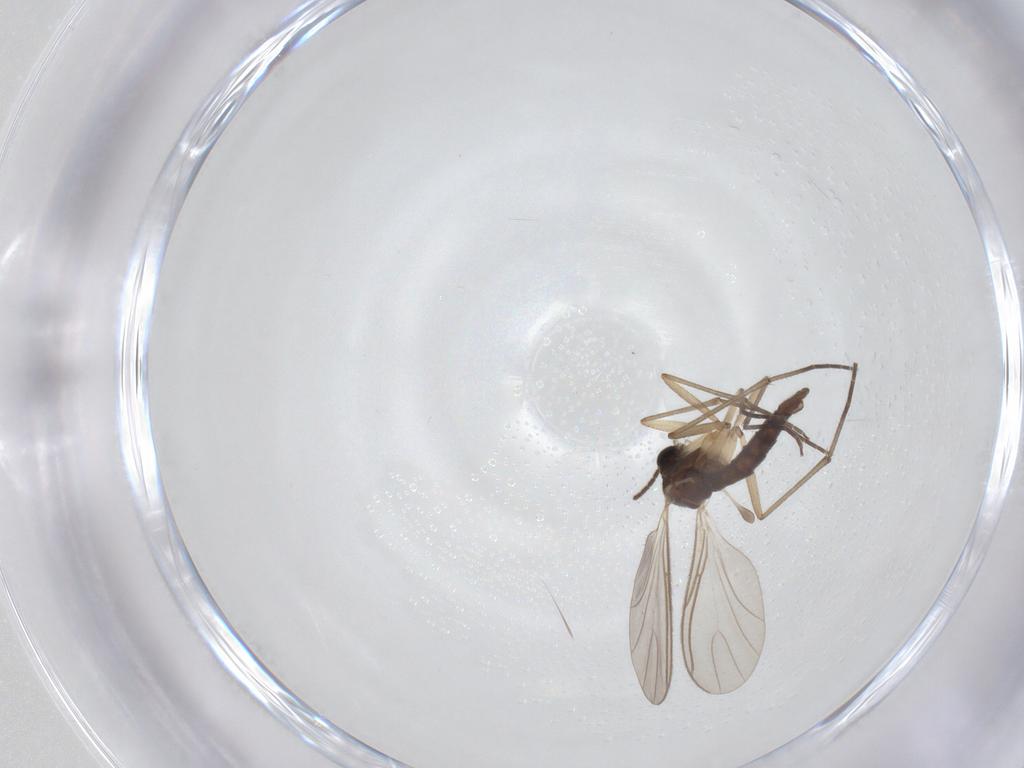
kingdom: Animalia
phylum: Arthropoda
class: Insecta
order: Diptera
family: Sciaridae
